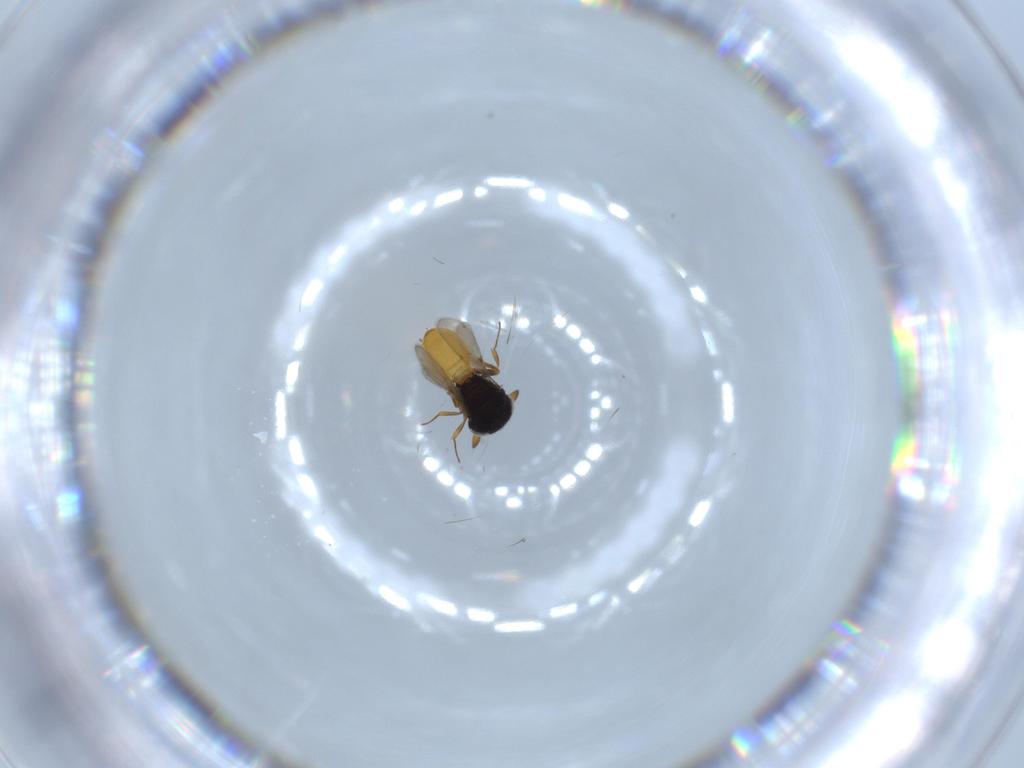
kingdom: Animalia
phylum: Arthropoda
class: Insecta
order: Hymenoptera
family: Scelionidae
